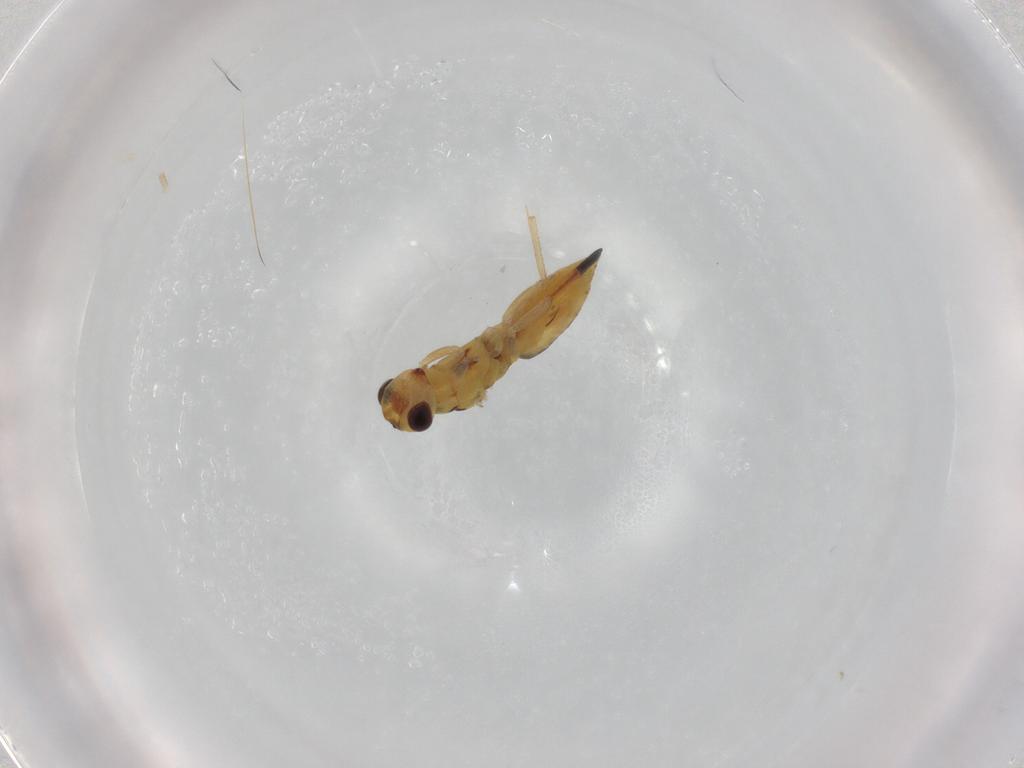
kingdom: Animalia
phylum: Arthropoda
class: Insecta
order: Hymenoptera
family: Eulophidae
